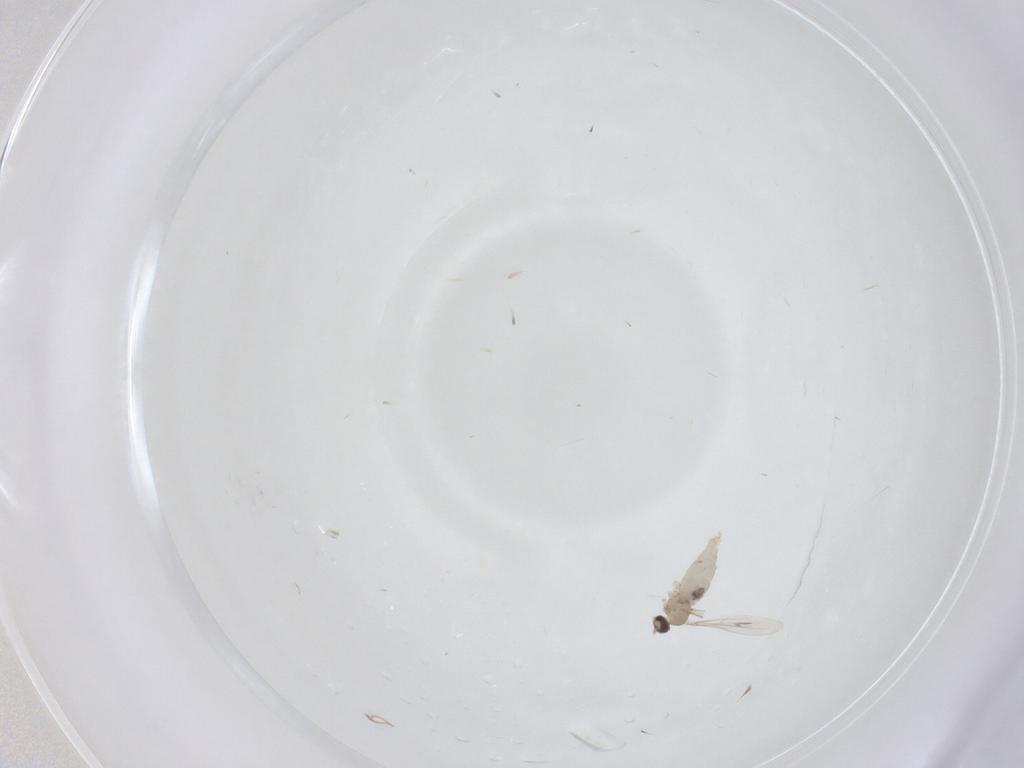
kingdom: Animalia
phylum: Arthropoda
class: Insecta
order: Diptera
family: Cecidomyiidae
